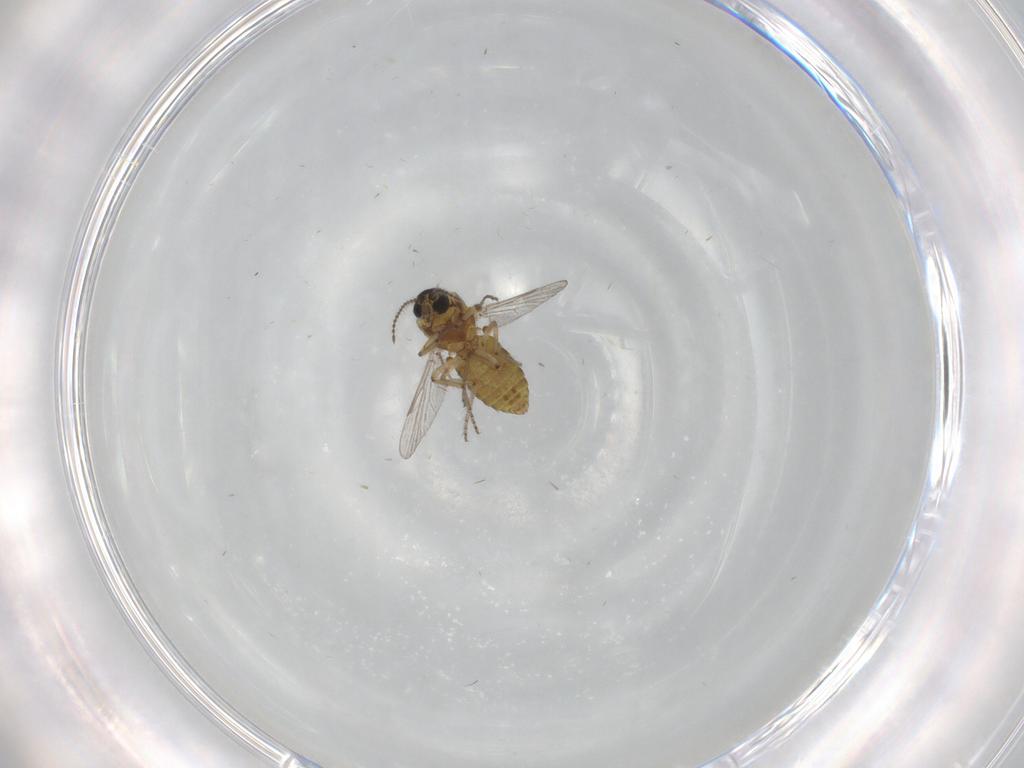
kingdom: Animalia
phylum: Arthropoda
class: Insecta
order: Diptera
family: Ceratopogonidae
